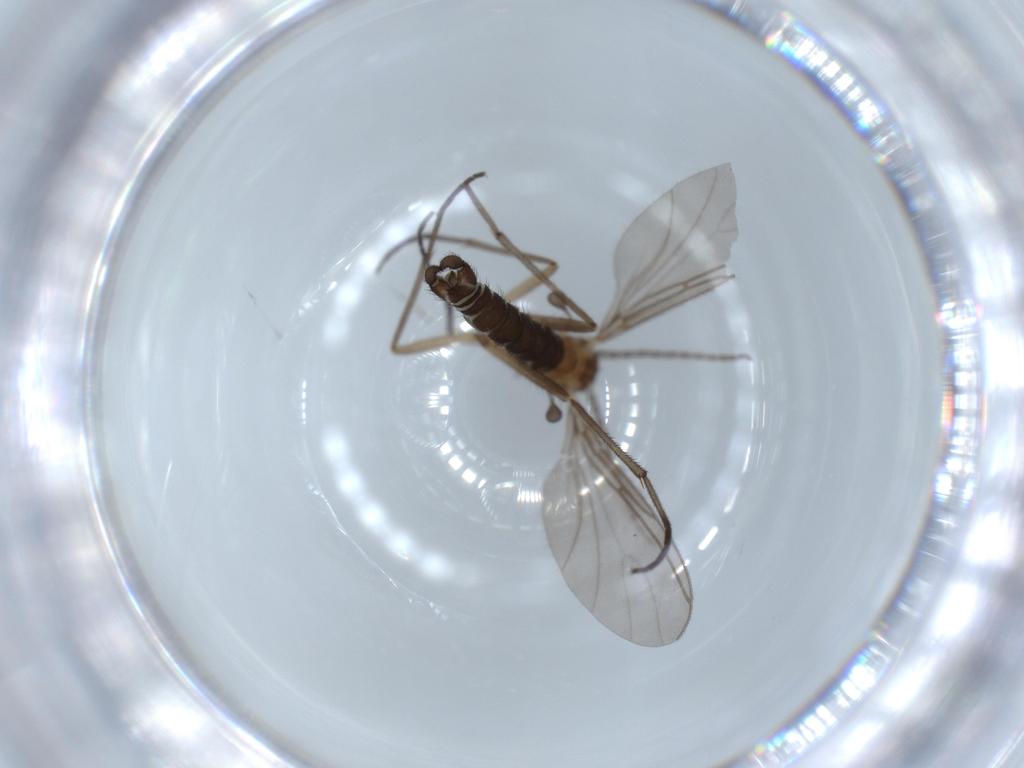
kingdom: Animalia
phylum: Arthropoda
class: Insecta
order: Diptera
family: Sciaridae
